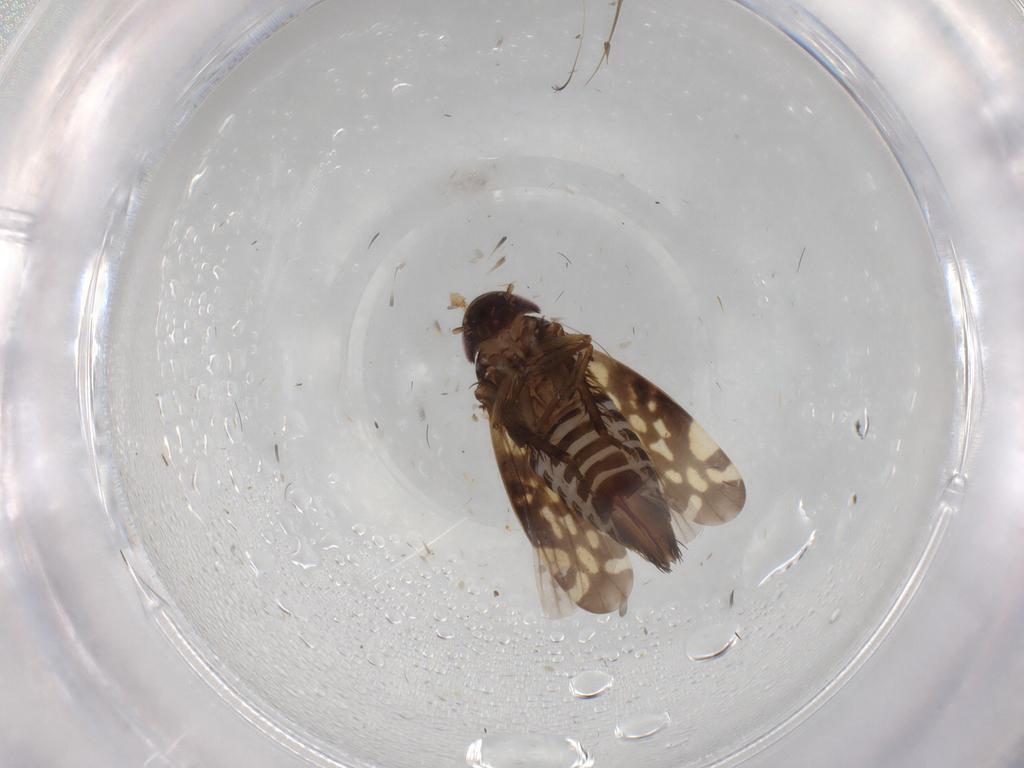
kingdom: Animalia
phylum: Arthropoda
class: Insecta
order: Hemiptera
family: Cicadellidae
